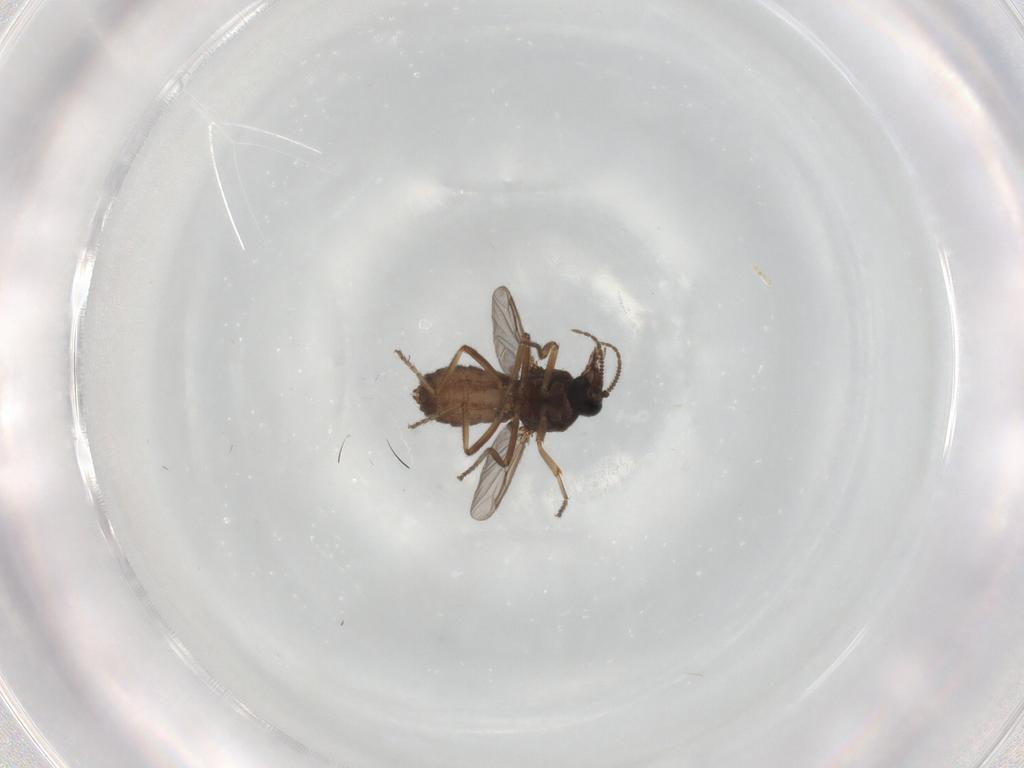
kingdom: Animalia
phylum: Arthropoda
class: Insecta
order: Diptera
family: Ceratopogonidae
